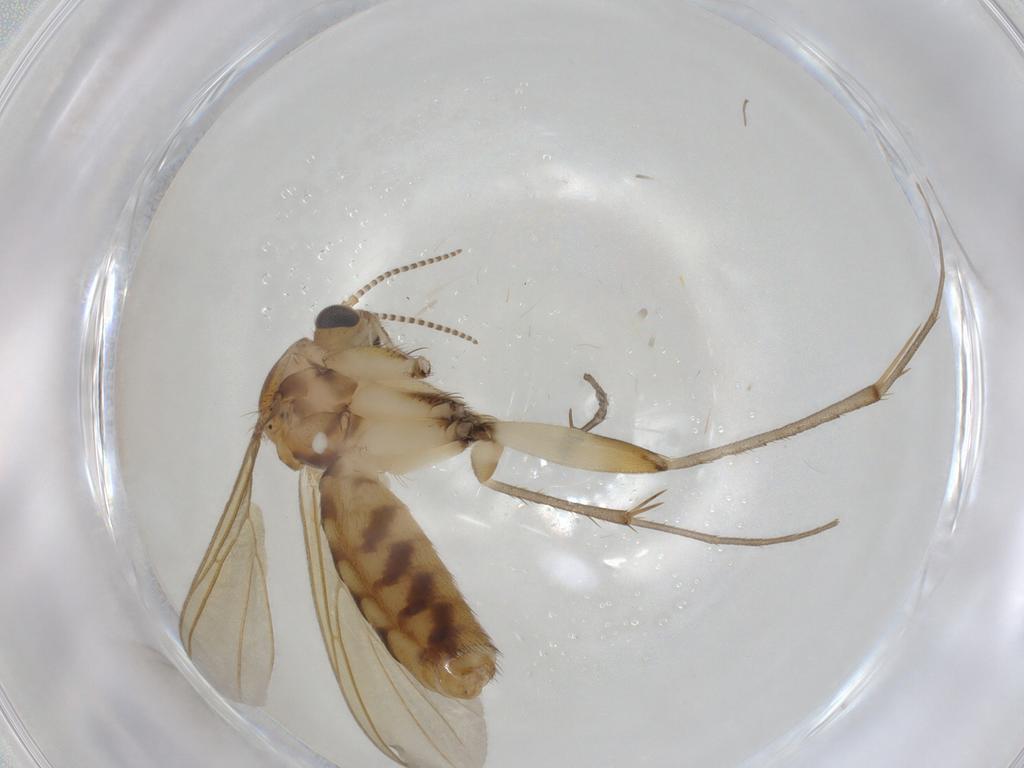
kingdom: Animalia
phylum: Arthropoda
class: Insecta
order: Diptera
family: Mycetophilidae
